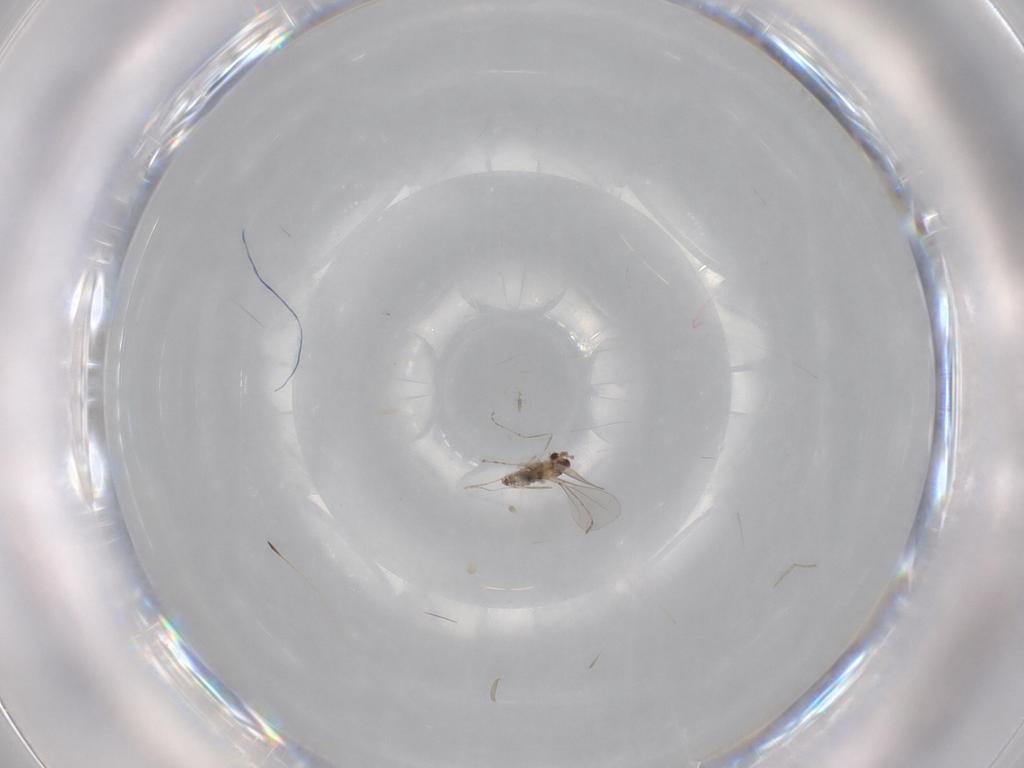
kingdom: Animalia
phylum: Arthropoda
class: Insecta
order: Diptera
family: Cecidomyiidae
